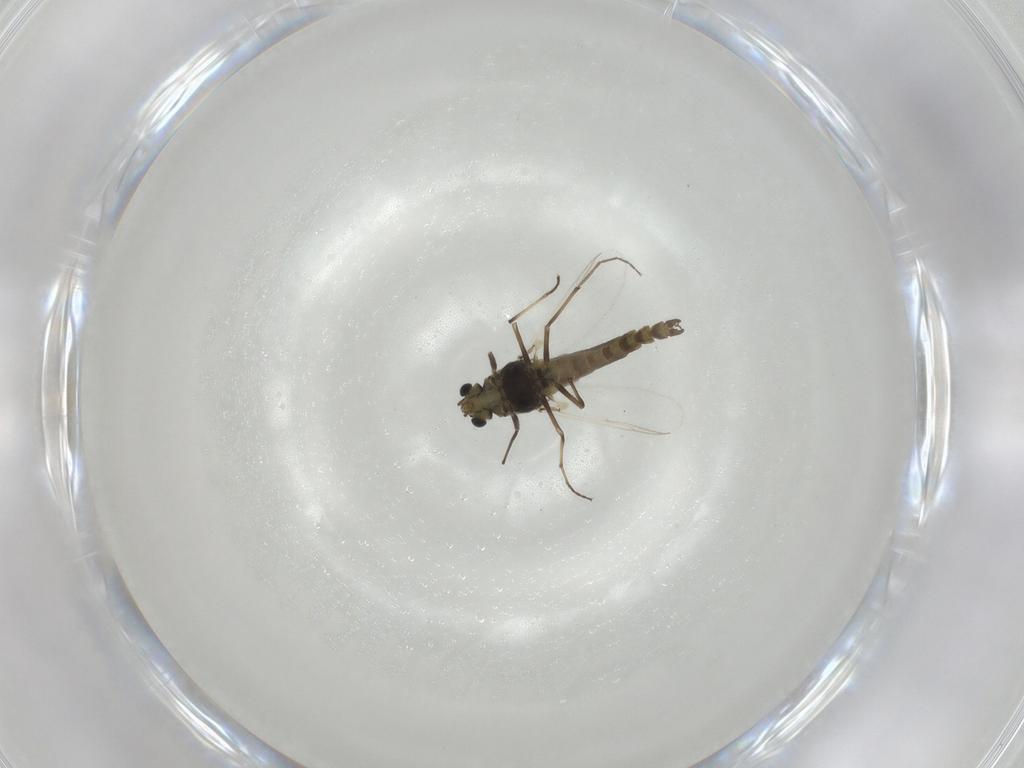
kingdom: Animalia
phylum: Arthropoda
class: Insecta
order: Diptera
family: Chironomidae
